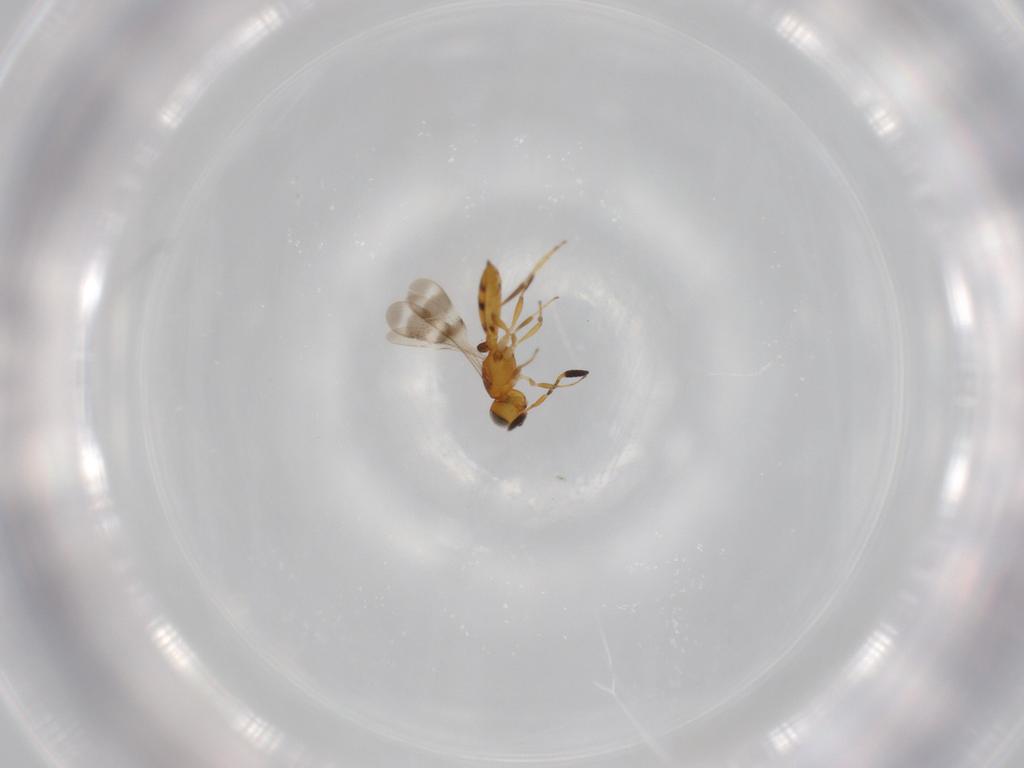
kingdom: Animalia
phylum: Arthropoda
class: Insecta
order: Hymenoptera
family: Scelionidae
